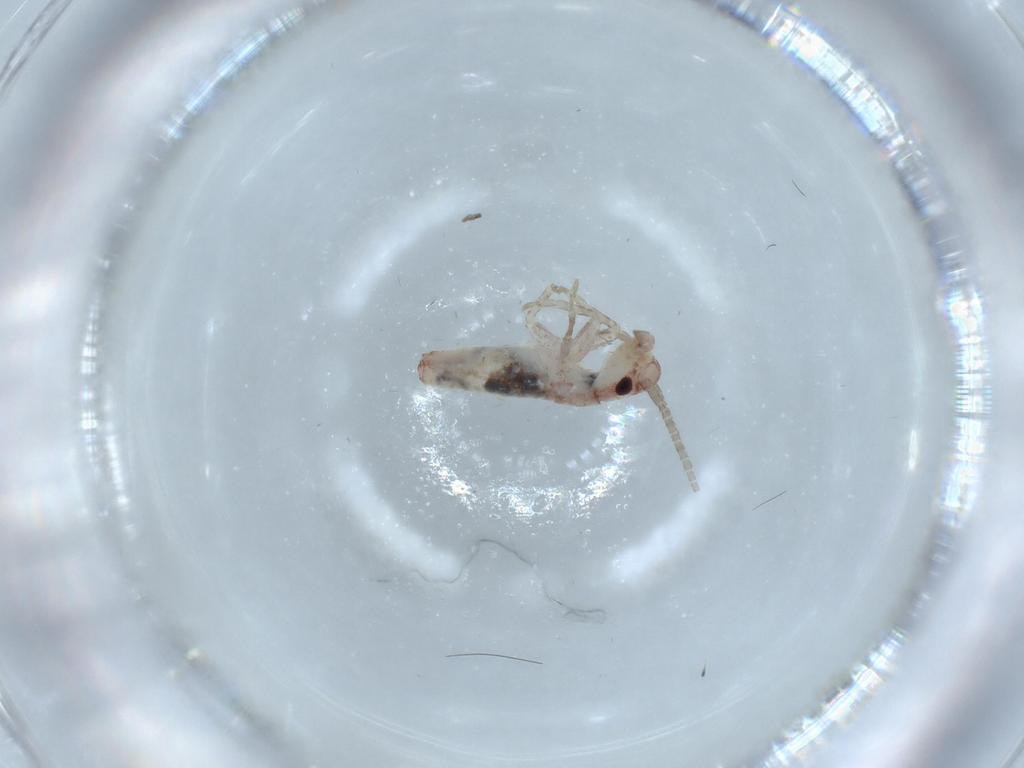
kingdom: Animalia
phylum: Arthropoda
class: Insecta
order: Orthoptera
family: Mogoplistidae
